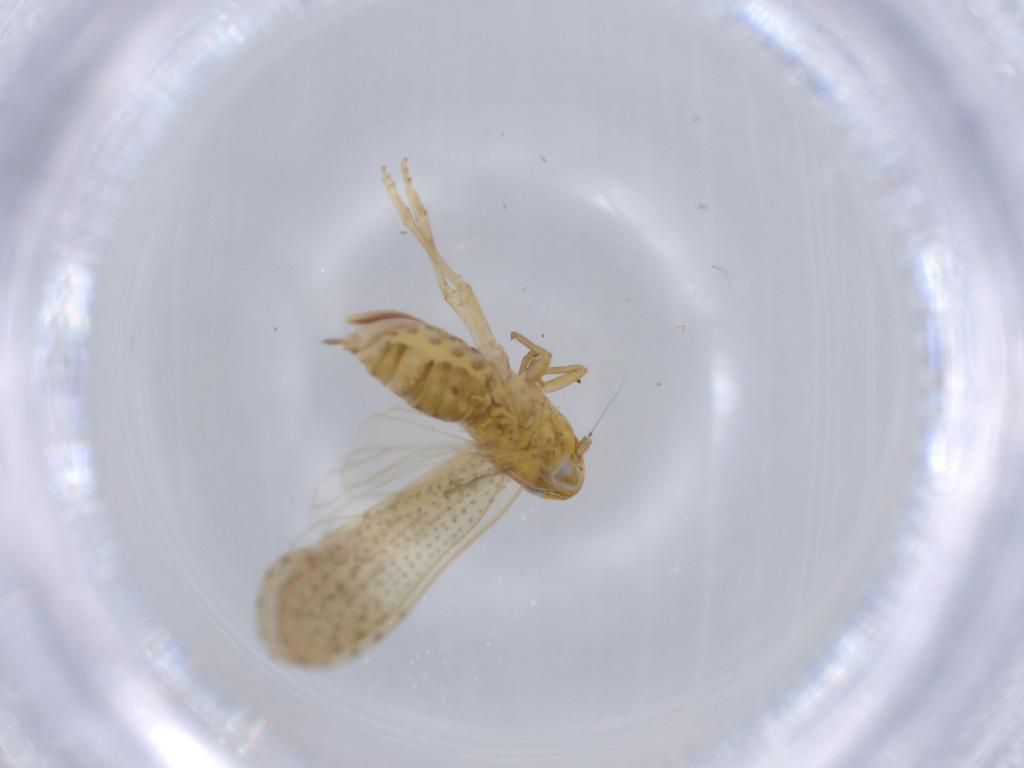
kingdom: Animalia
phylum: Arthropoda
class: Insecta
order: Hemiptera
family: Delphacidae
